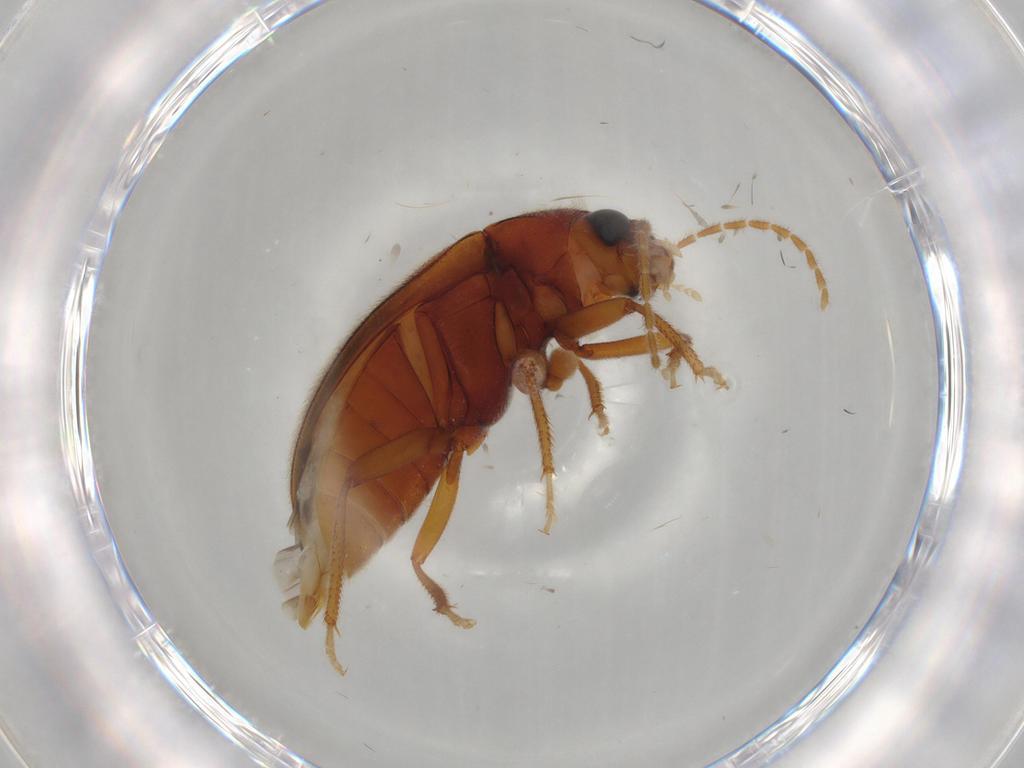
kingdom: Animalia
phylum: Arthropoda
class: Insecta
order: Coleoptera
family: Ptilodactylidae
